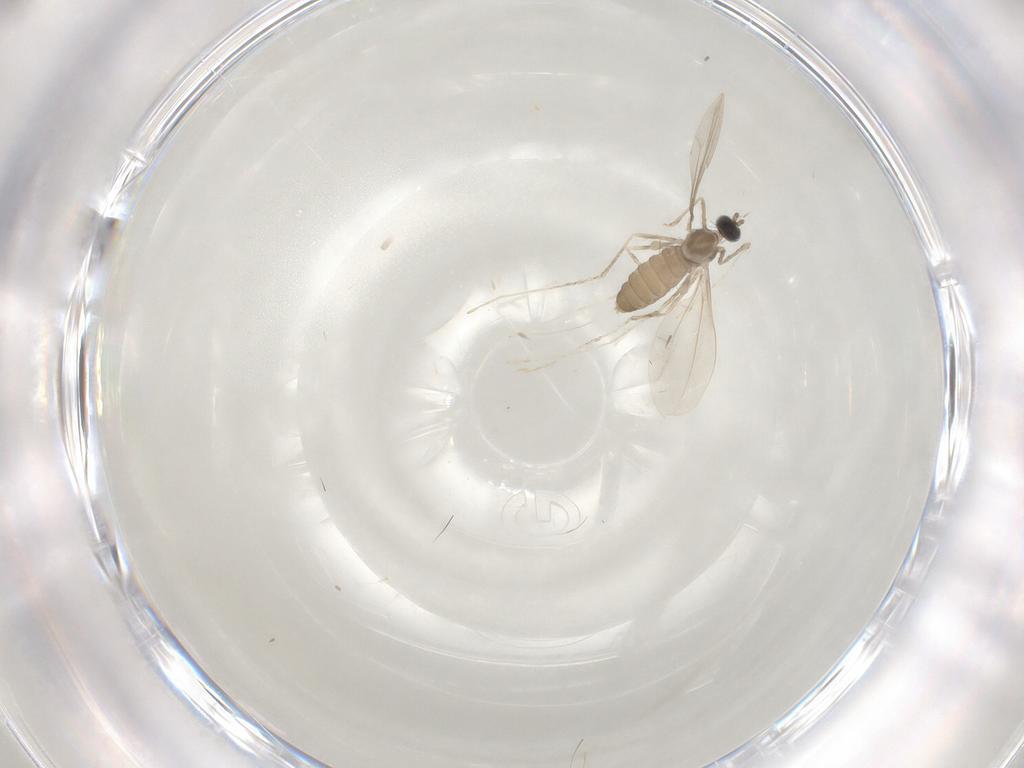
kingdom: Animalia
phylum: Arthropoda
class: Insecta
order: Diptera
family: Cecidomyiidae
